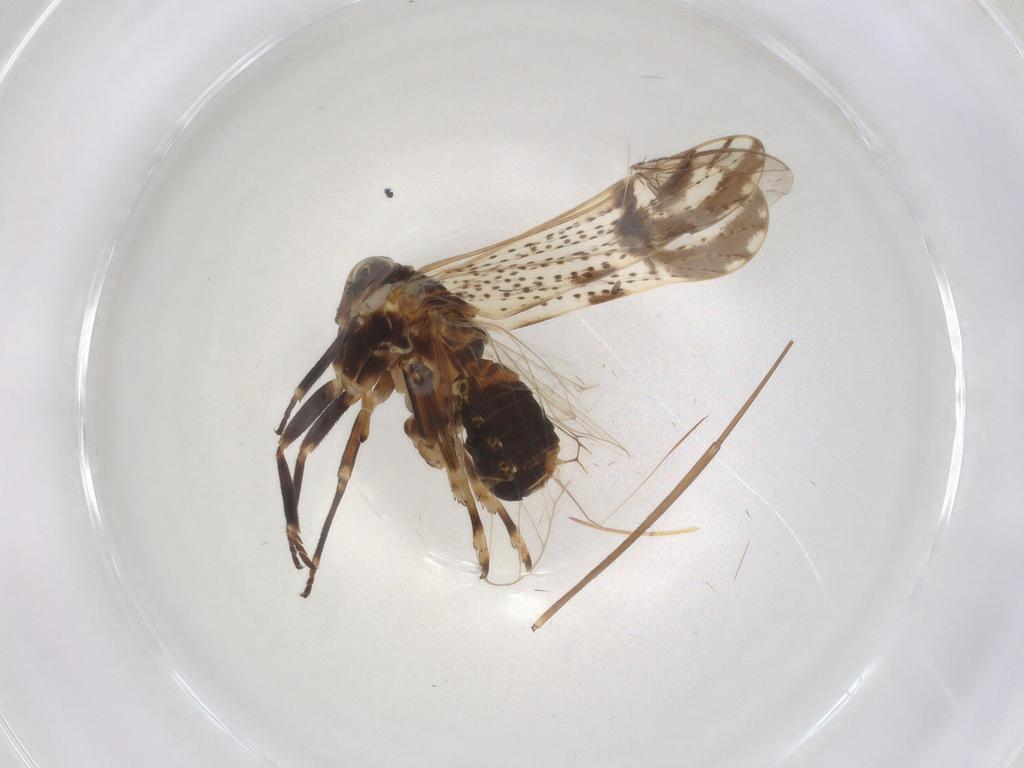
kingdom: Animalia
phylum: Arthropoda
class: Insecta
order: Hemiptera
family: Delphacidae
